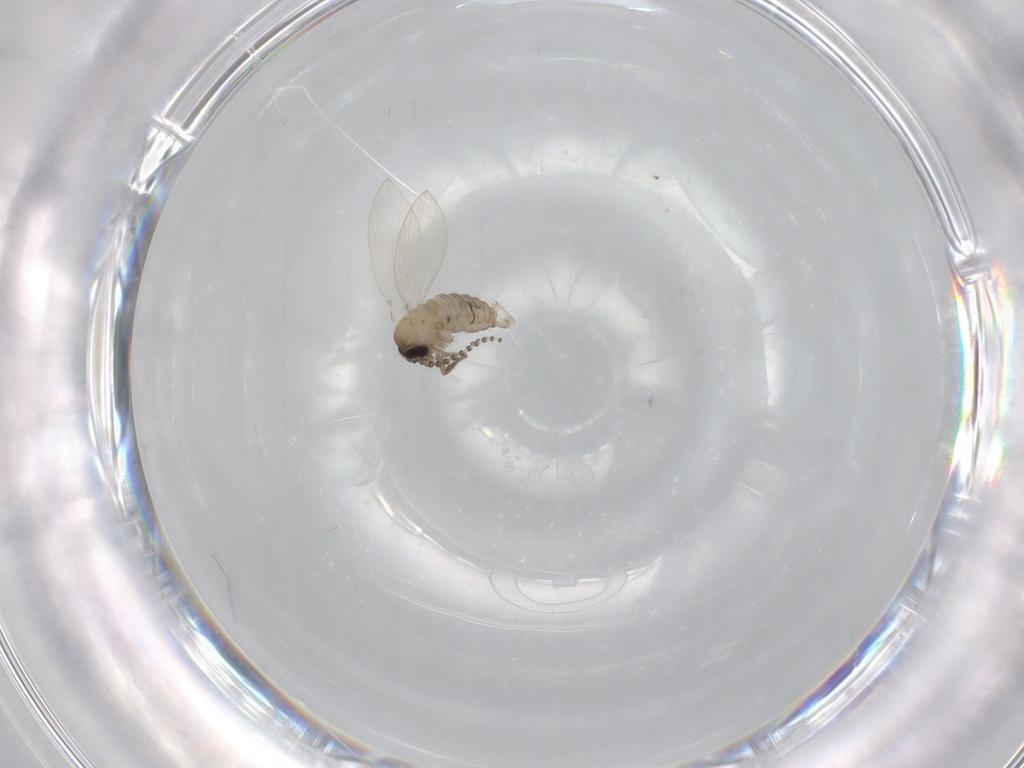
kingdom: Animalia
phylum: Arthropoda
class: Insecta
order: Diptera
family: Psychodidae
